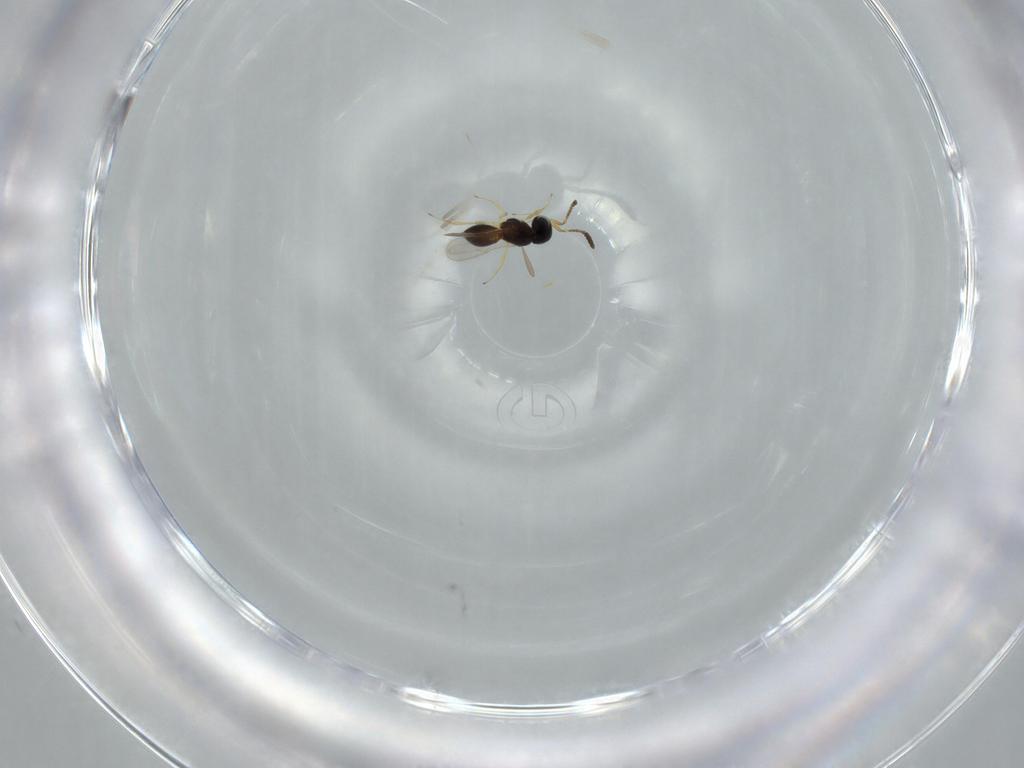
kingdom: Animalia
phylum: Arthropoda
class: Insecta
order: Hymenoptera
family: Scelionidae
